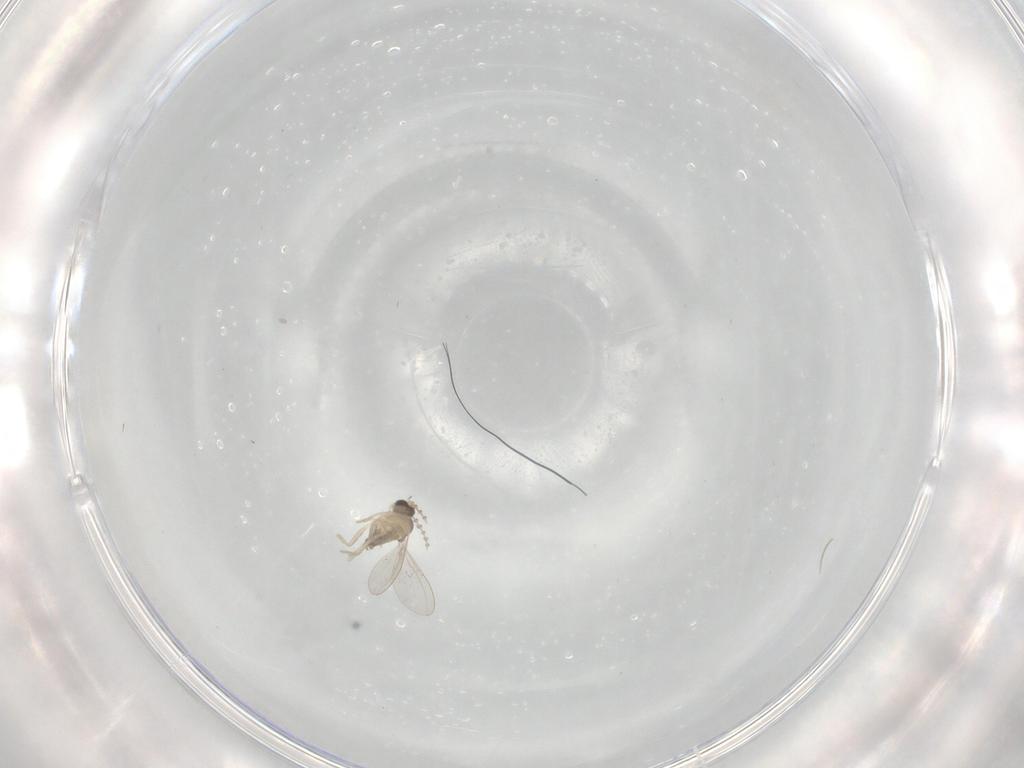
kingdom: Animalia
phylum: Arthropoda
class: Insecta
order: Diptera
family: Cecidomyiidae
